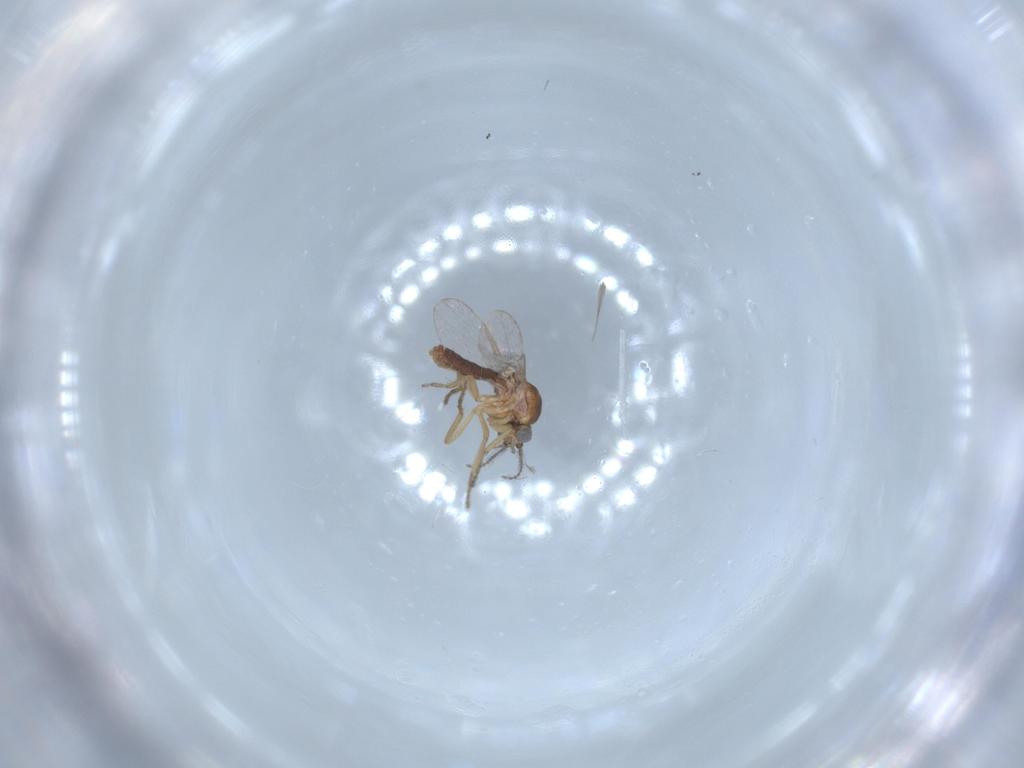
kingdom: Animalia
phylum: Arthropoda
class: Insecta
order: Diptera
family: Ceratopogonidae
